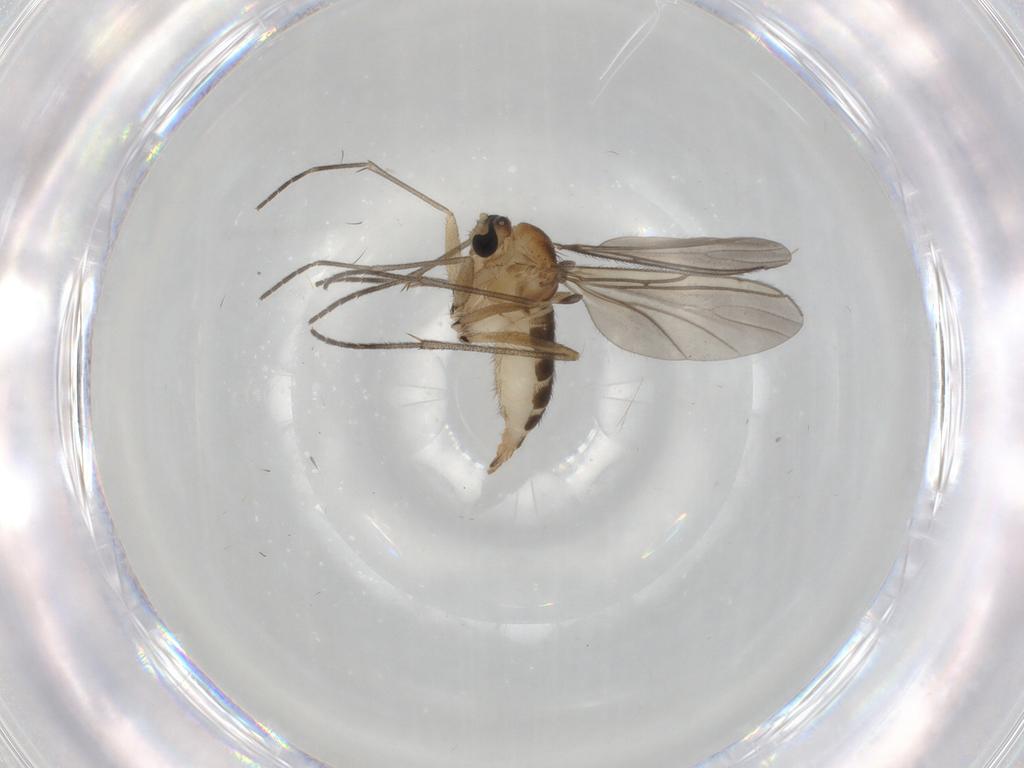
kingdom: Animalia
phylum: Arthropoda
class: Insecta
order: Diptera
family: Sciaridae
